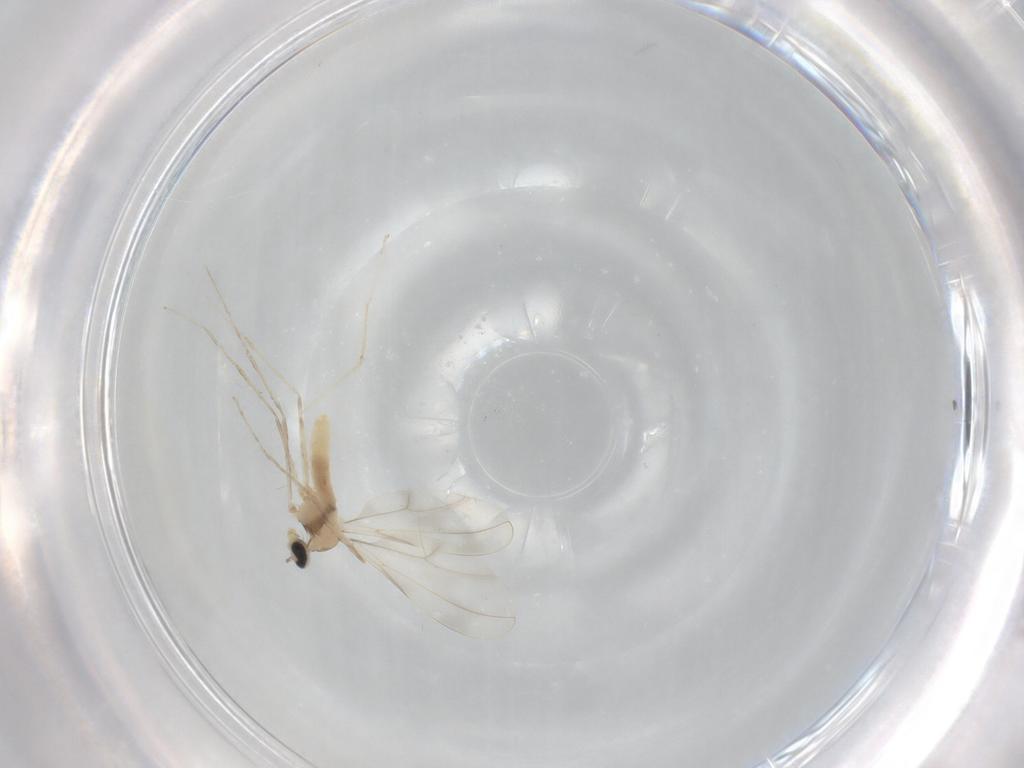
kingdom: Animalia
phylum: Arthropoda
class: Insecta
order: Diptera
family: Cecidomyiidae
